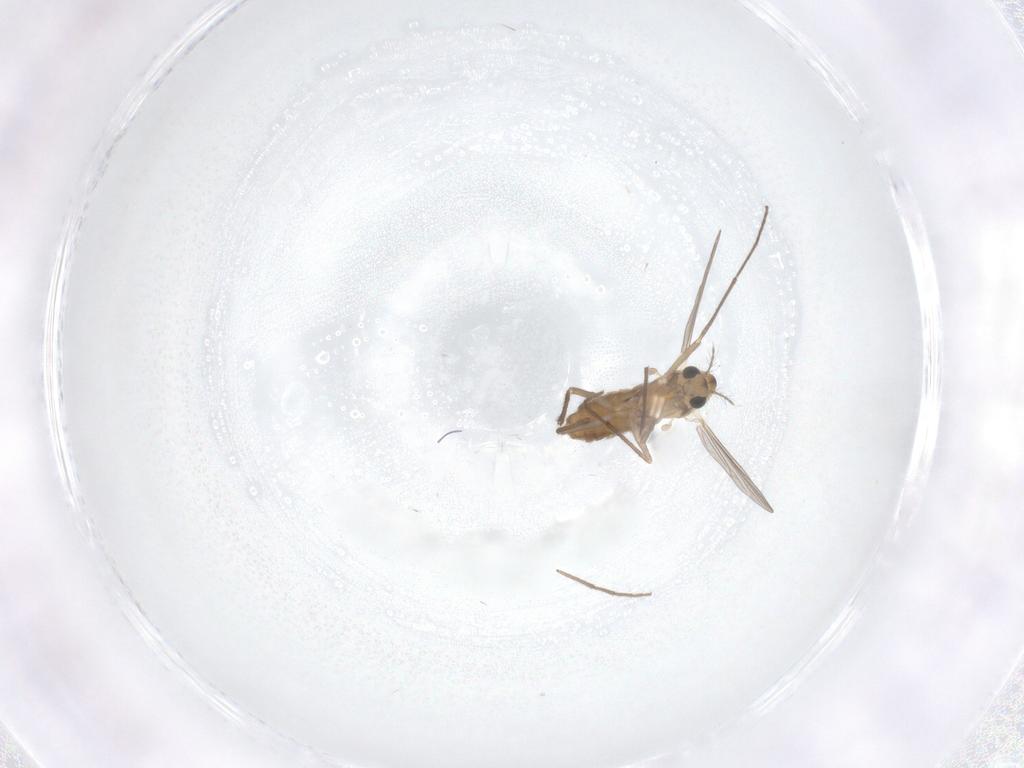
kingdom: Animalia
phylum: Arthropoda
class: Insecta
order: Diptera
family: Chironomidae
